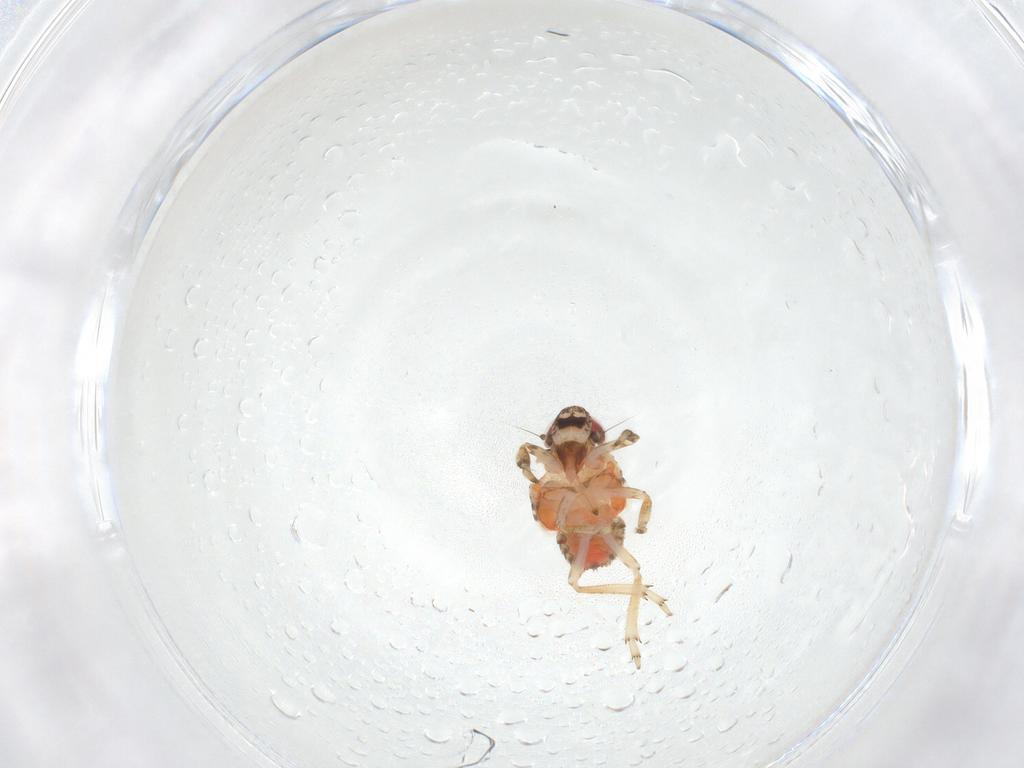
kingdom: Animalia
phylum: Arthropoda
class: Insecta
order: Hemiptera
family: Issidae
